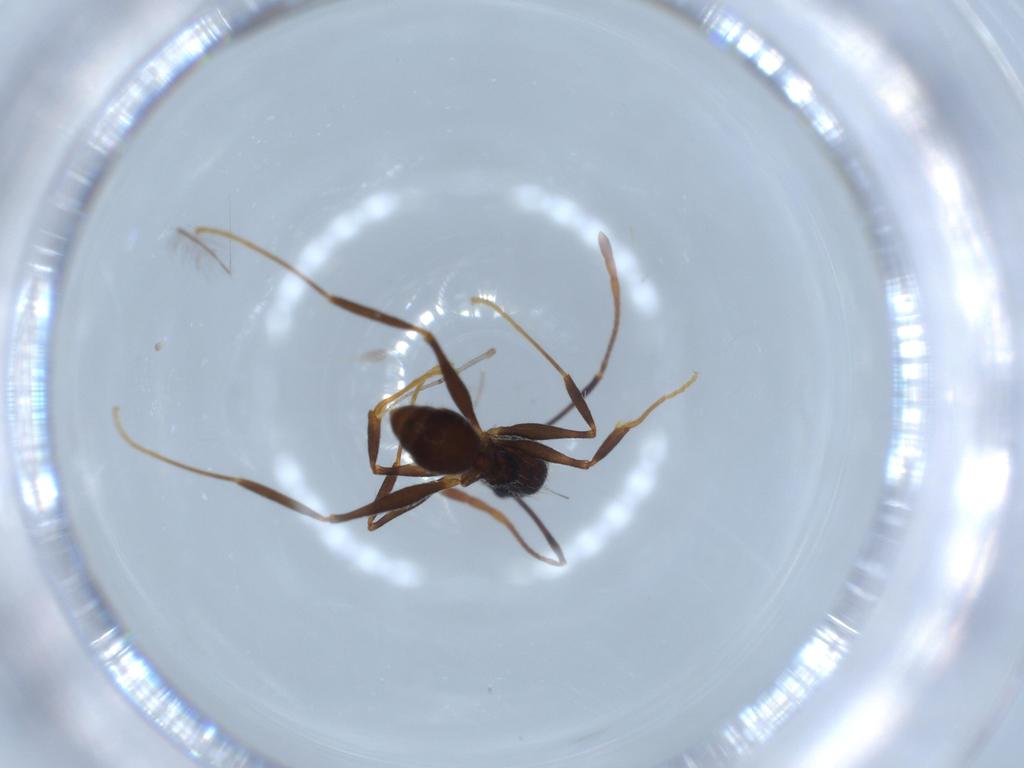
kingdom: Animalia
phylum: Arthropoda
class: Insecta
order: Hymenoptera
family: Formicidae
